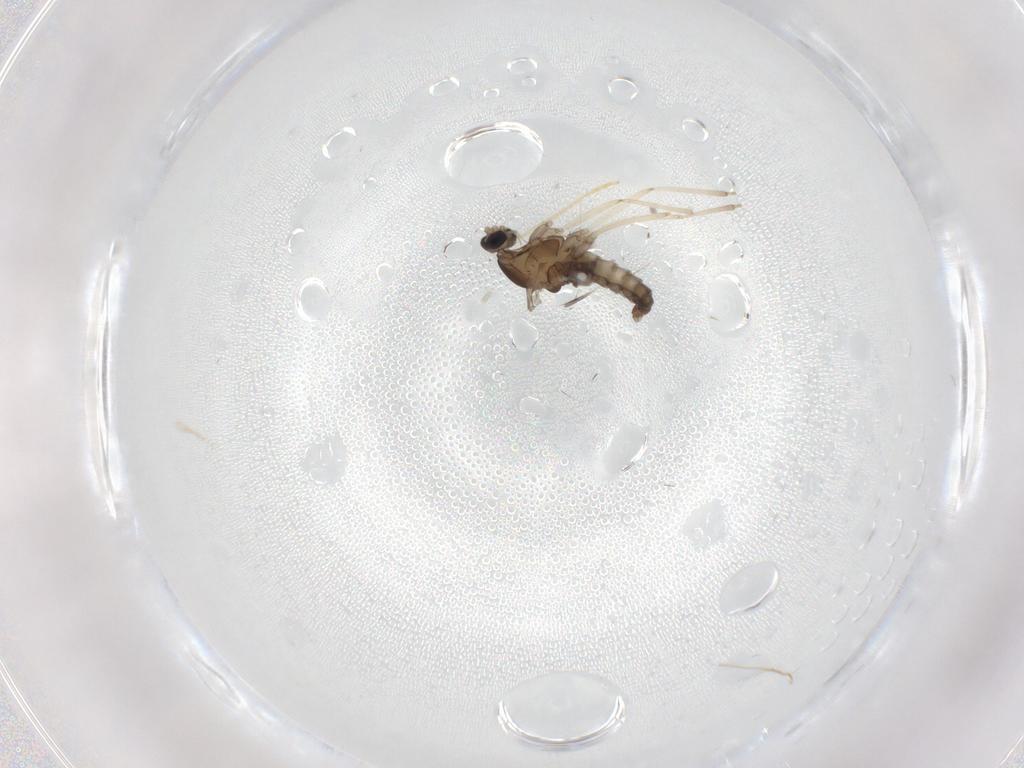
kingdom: Animalia
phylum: Arthropoda
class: Insecta
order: Diptera
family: Cecidomyiidae
